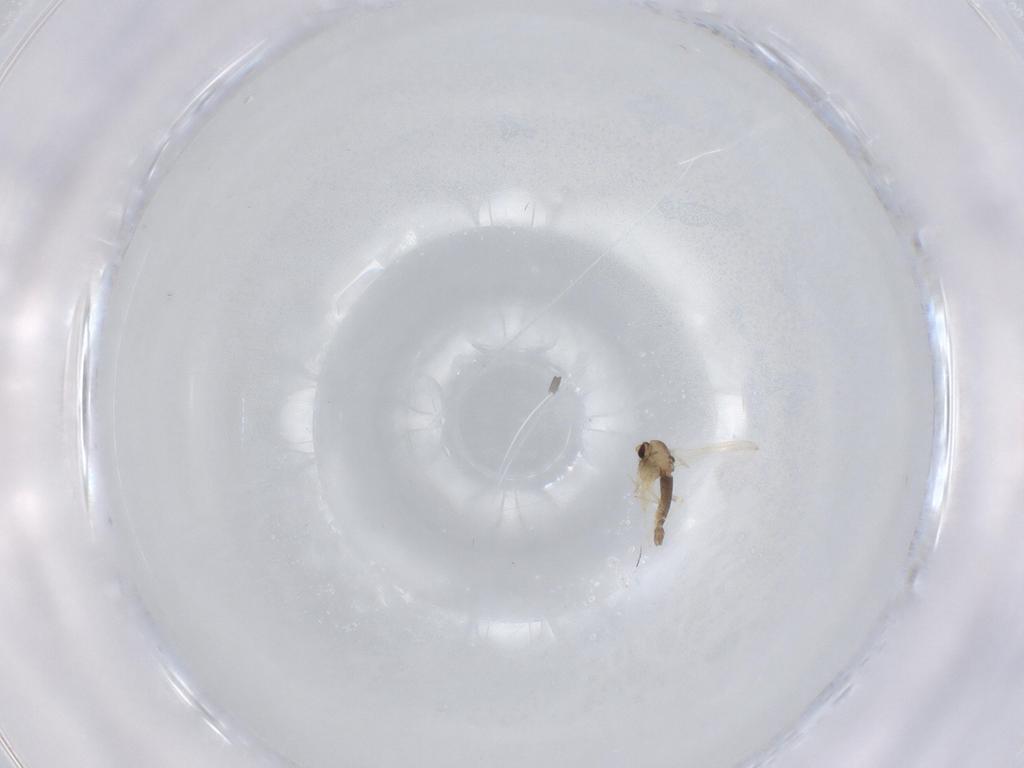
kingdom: Animalia
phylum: Arthropoda
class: Insecta
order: Diptera
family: Chironomidae
